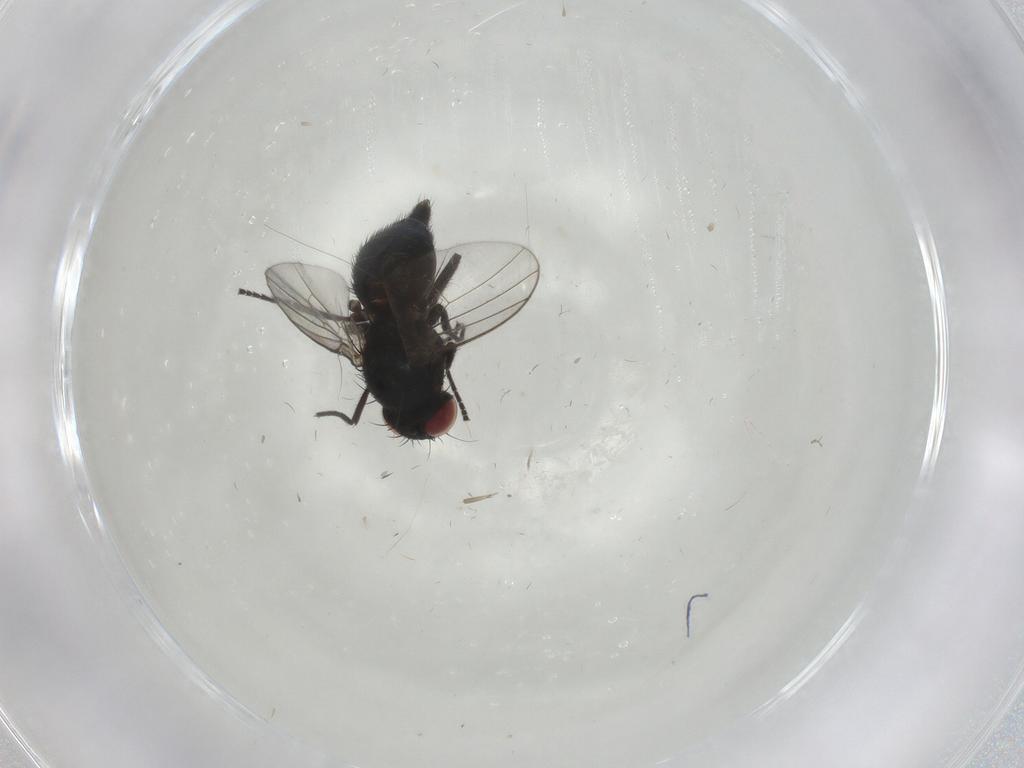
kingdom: Animalia
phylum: Arthropoda
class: Insecta
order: Diptera
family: Agromyzidae
